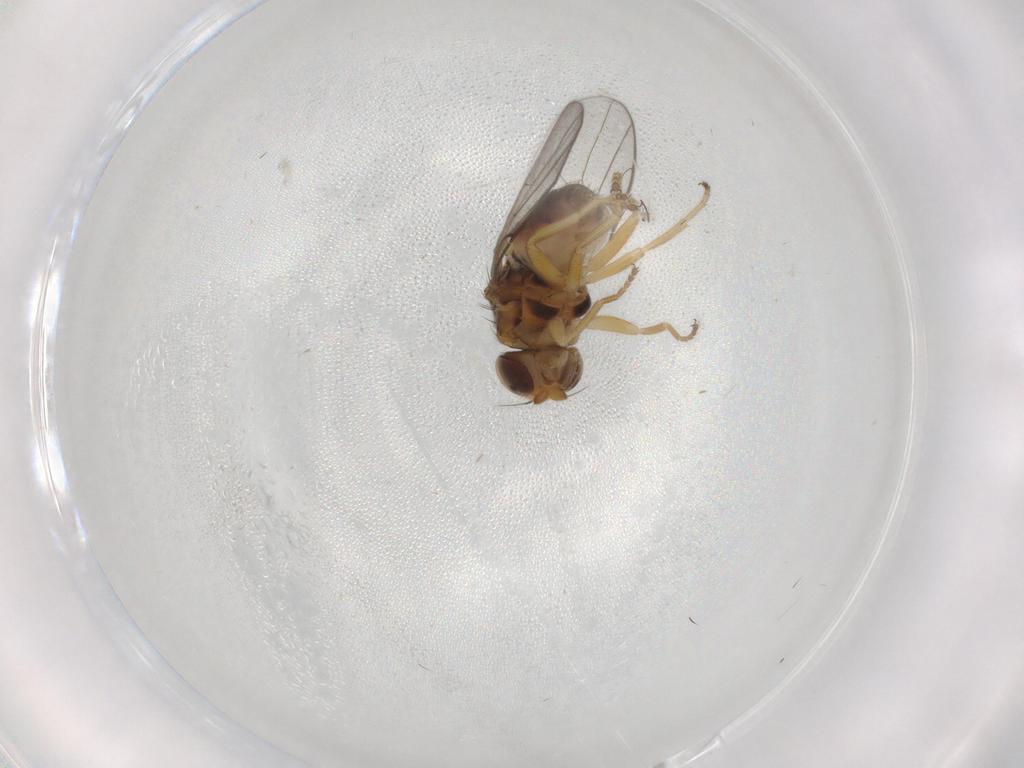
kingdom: Animalia
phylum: Arthropoda
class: Insecta
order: Diptera
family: Chloropidae
